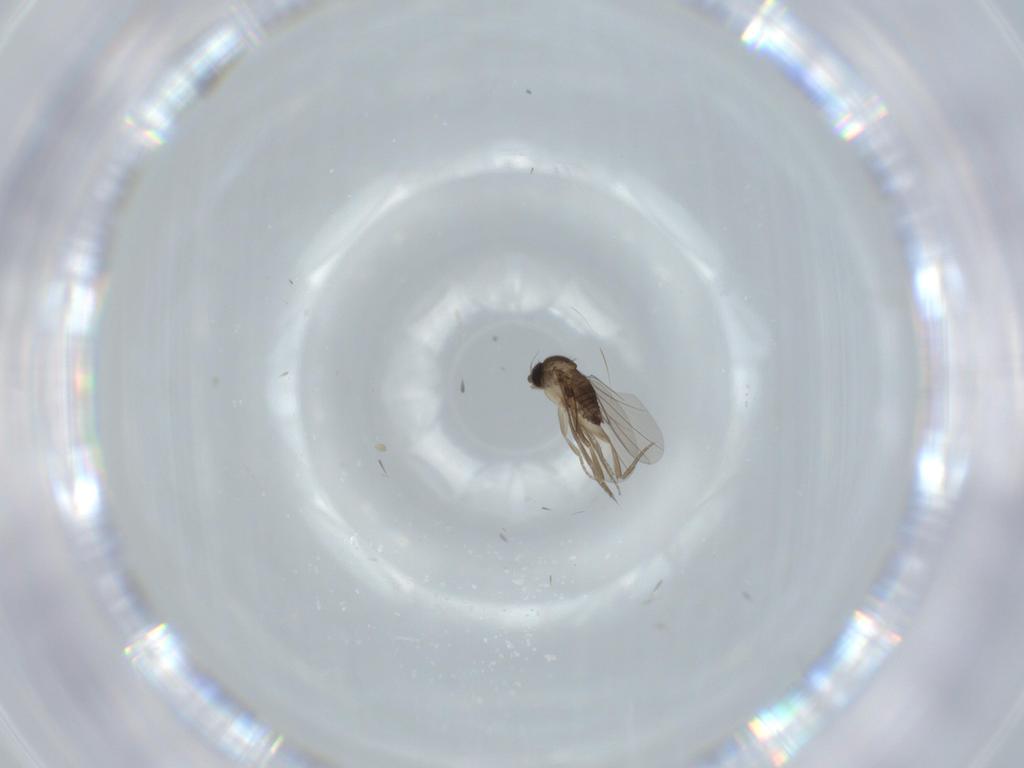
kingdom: Animalia
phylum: Arthropoda
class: Insecta
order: Diptera
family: Phoridae
